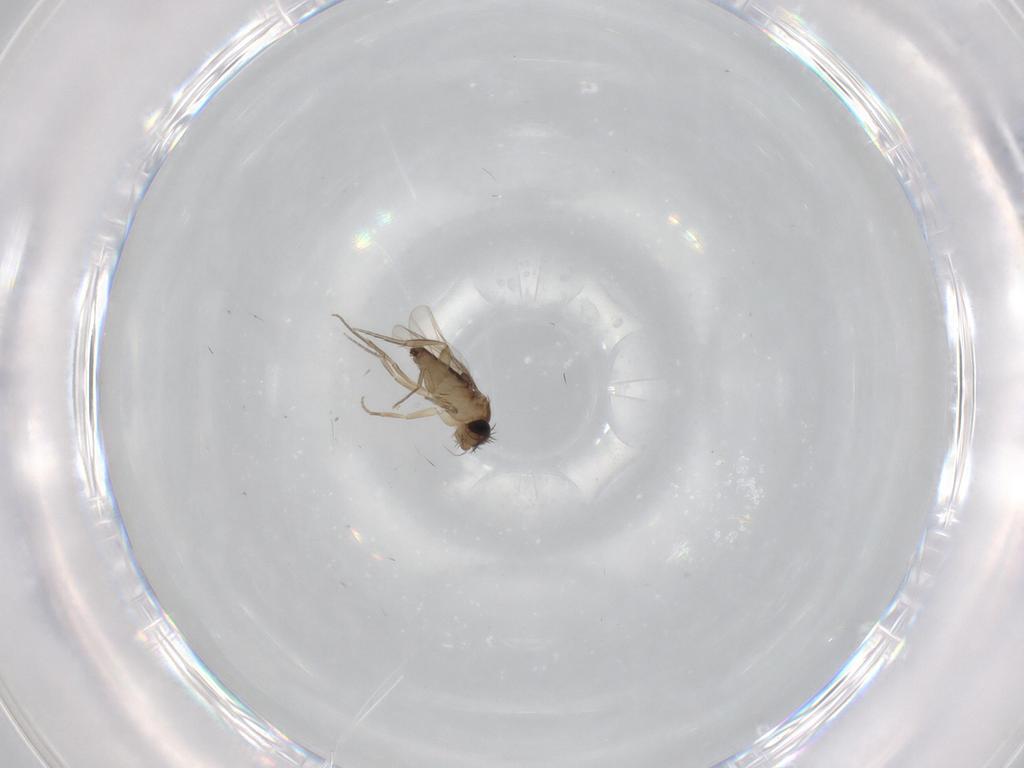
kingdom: Animalia
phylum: Arthropoda
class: Insecta
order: Diptera
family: Phoridae
